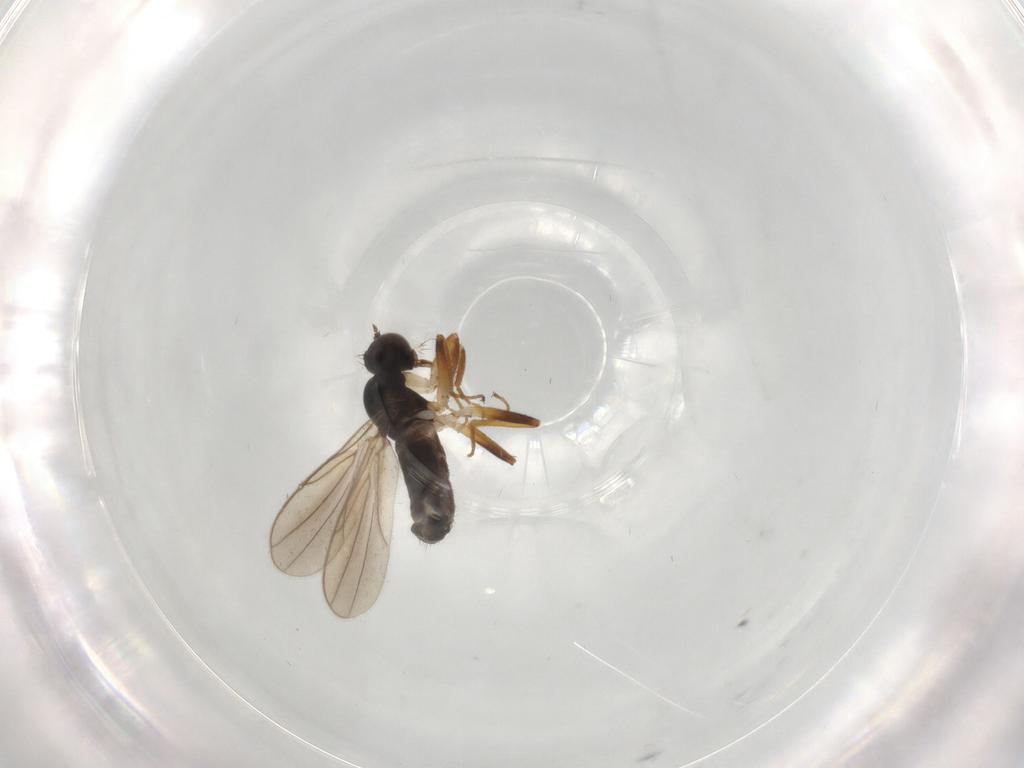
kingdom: Animalia
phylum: Arthropoda
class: Insecta
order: Diptera
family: Hybotidae
